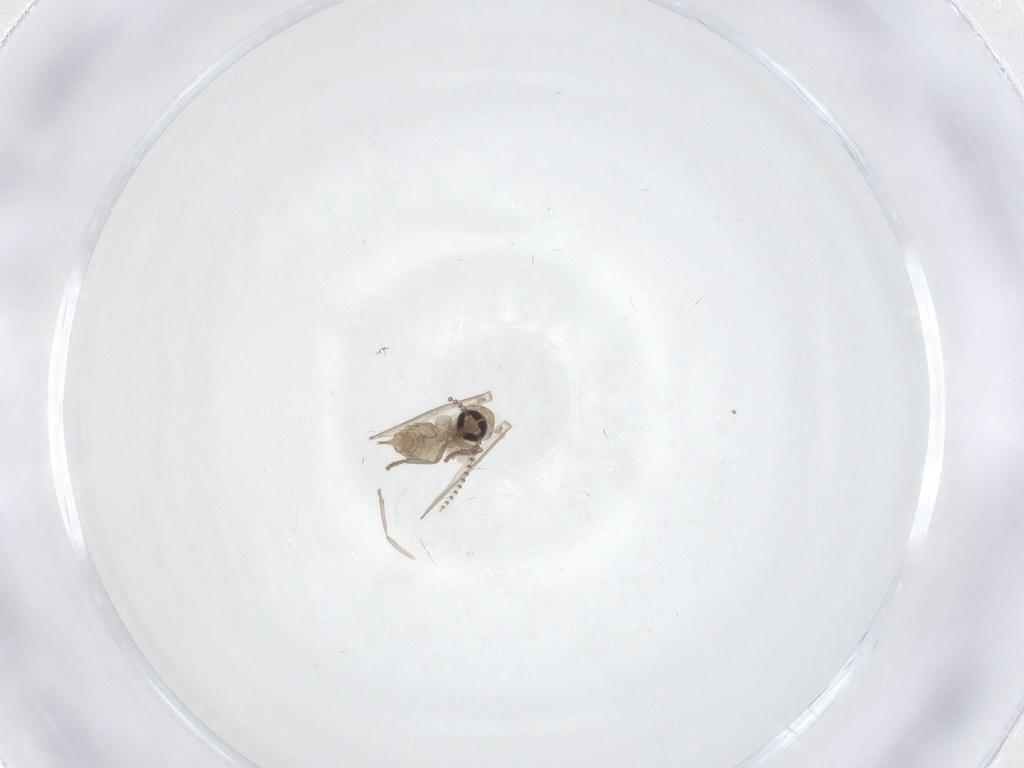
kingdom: Animalia
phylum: Arthropoda
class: Insecta
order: Diptera
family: Psychodidae
